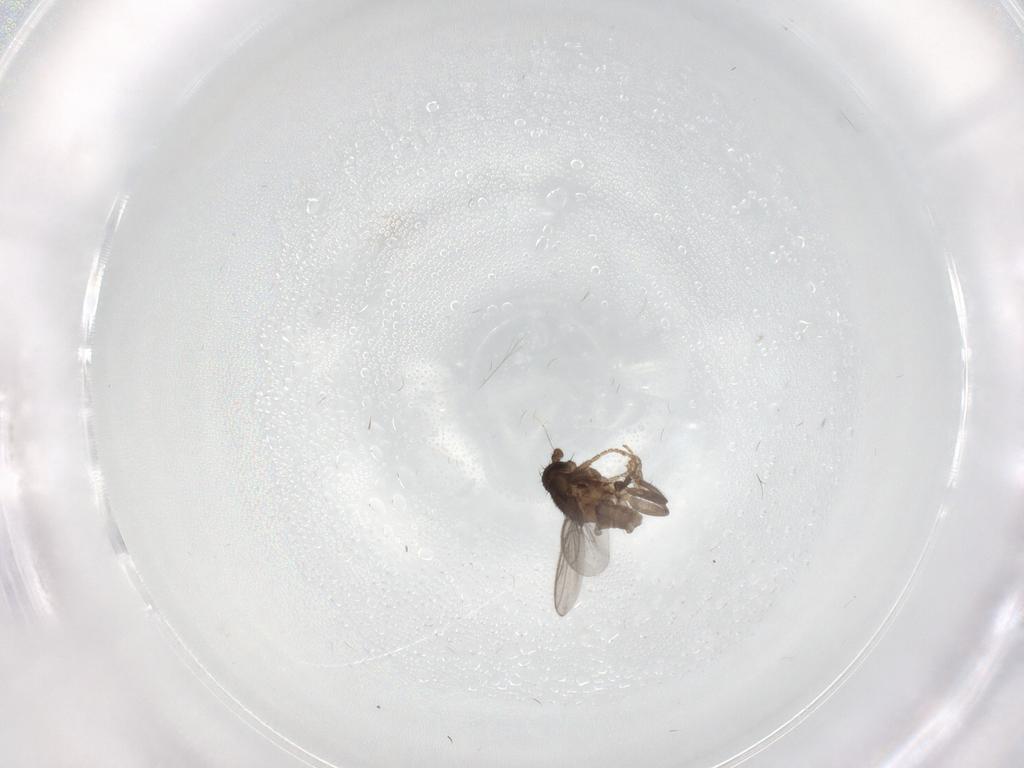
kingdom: Animalia
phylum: Arthropoda
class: Insecta
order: Diptera
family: Sphaeroceridae
